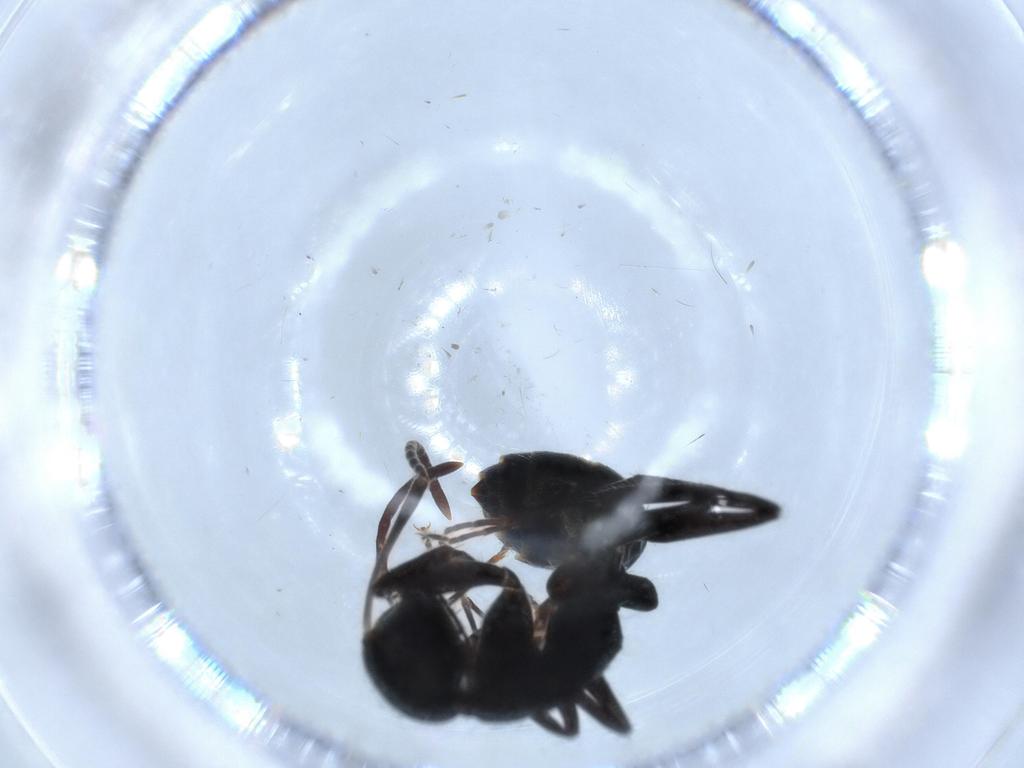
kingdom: Animalia
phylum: Arthropoda
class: Insecta
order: Hymenoptera
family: Formicidae
